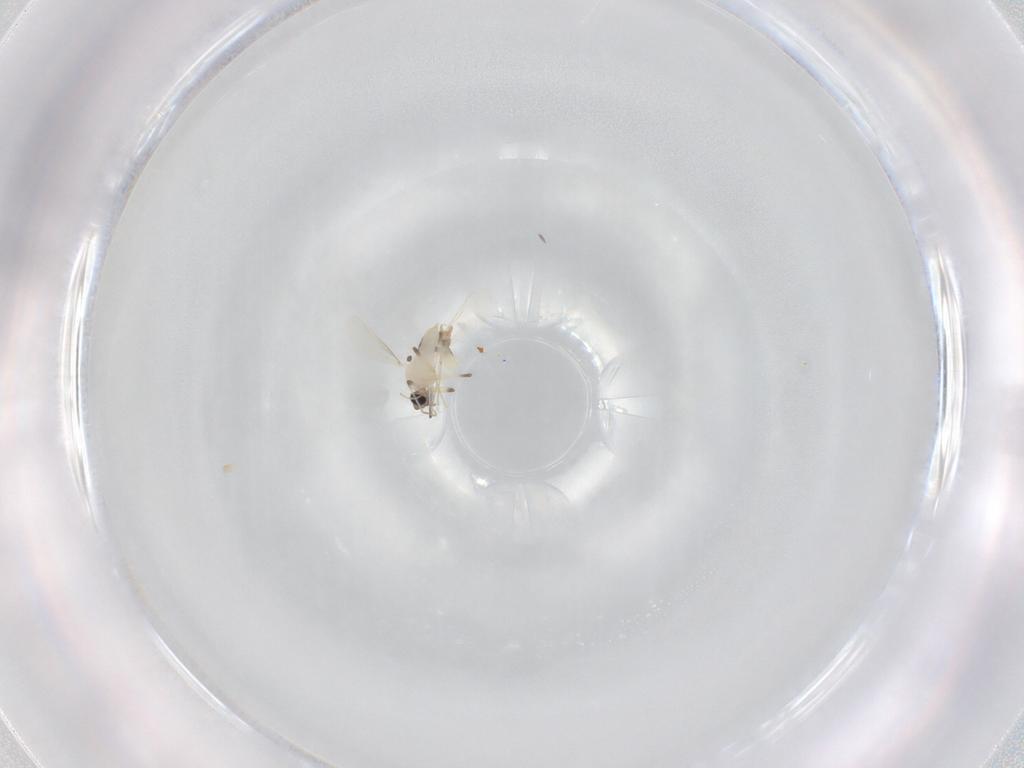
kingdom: Animalia
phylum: Arthropoda
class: Insecta
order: Diptera
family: Chironomidae
